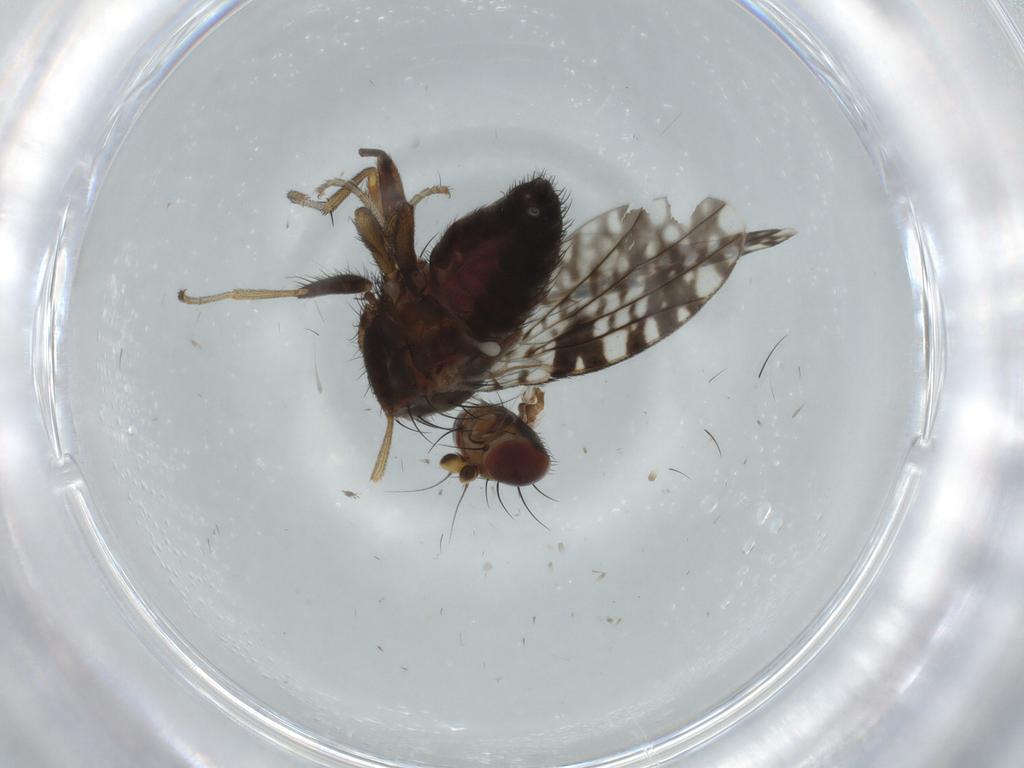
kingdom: Animalia
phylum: Arthropoda
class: Insecta
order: Diptera
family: Tephritidae
